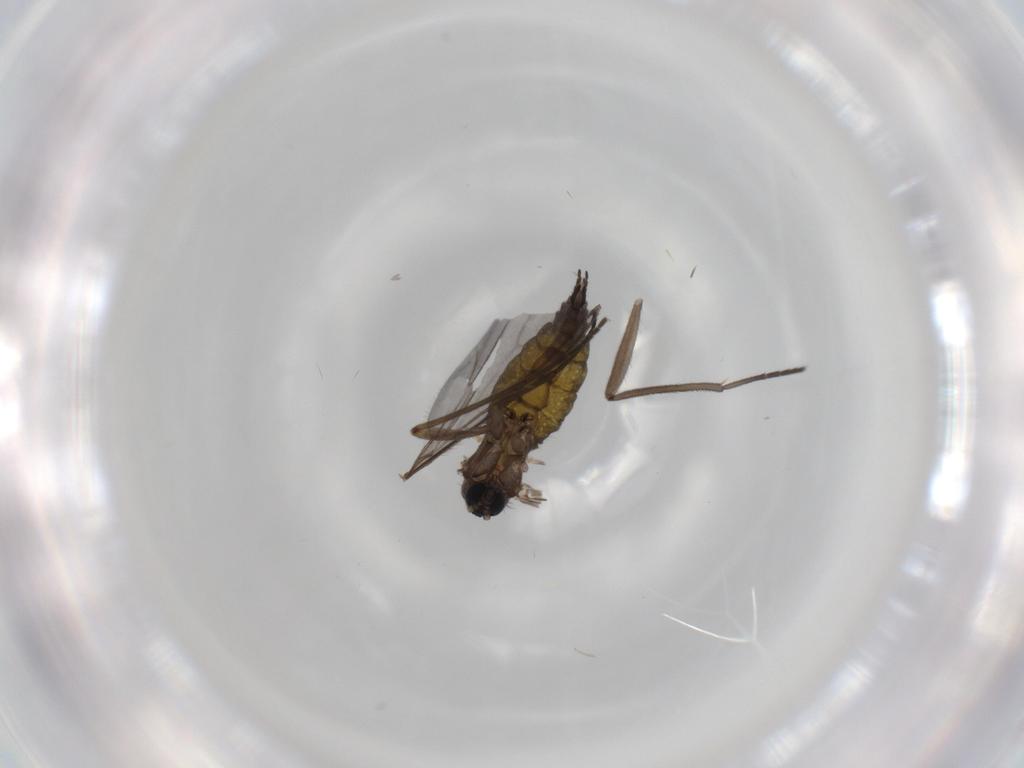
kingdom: Animalia
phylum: Arthropoda
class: Insecta
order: Diptera
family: Sciaridae
